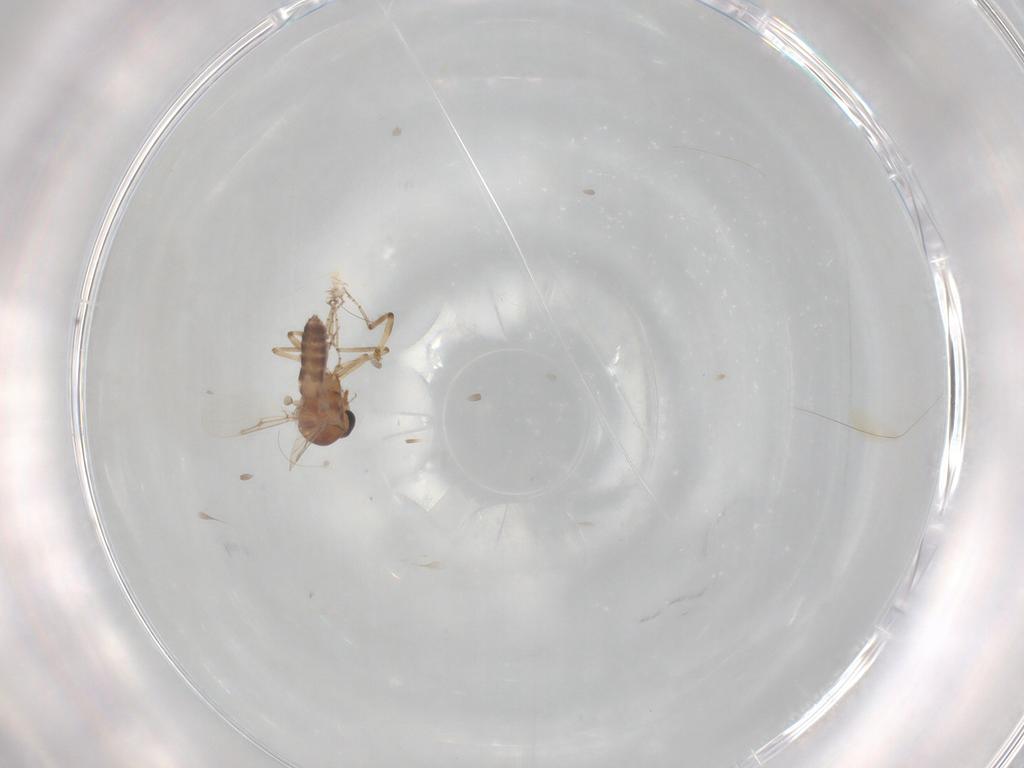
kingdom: Animalia
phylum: Arthropoda
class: Insecta
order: Diptera
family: Ceratopogonidae
